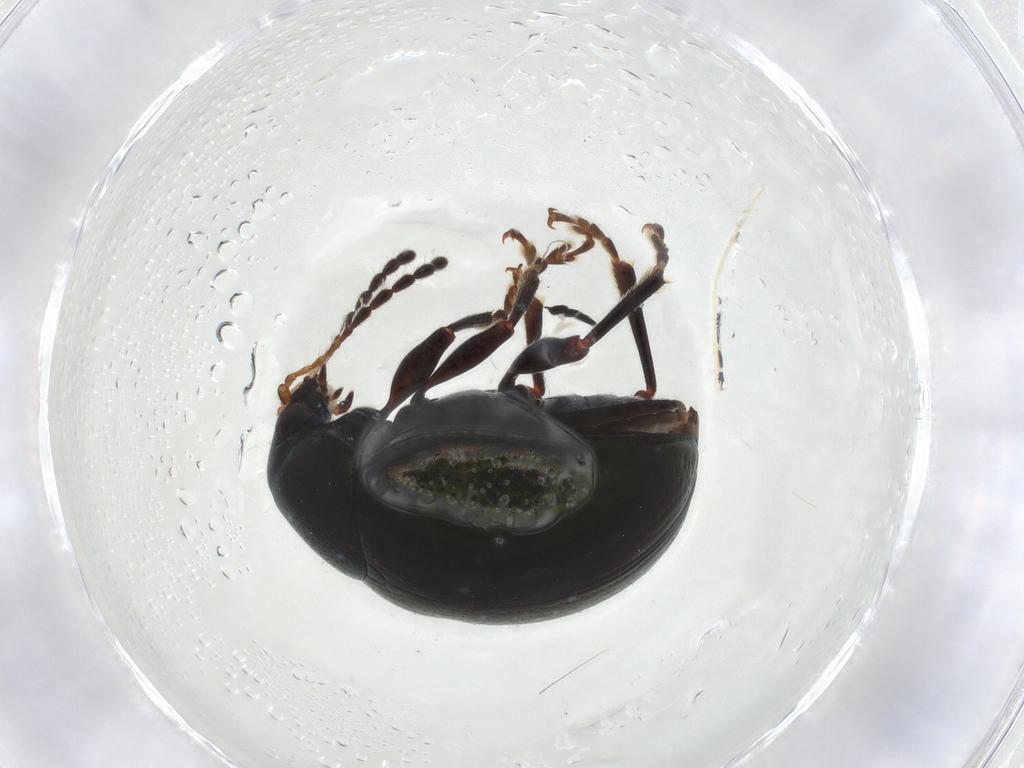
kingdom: Animalia
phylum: Arthropoda
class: Insecta
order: Coleoptera
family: Chrysomelidae
